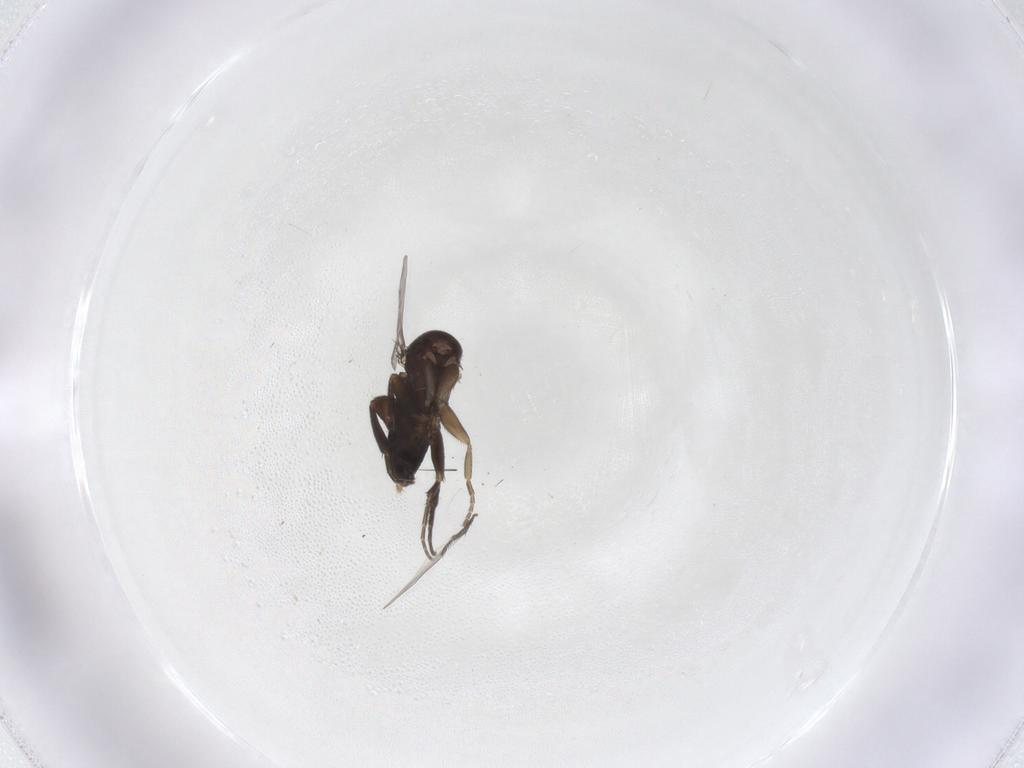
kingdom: Animalia
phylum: Arthropoda
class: Insecta
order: Diptera
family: Phoridae
